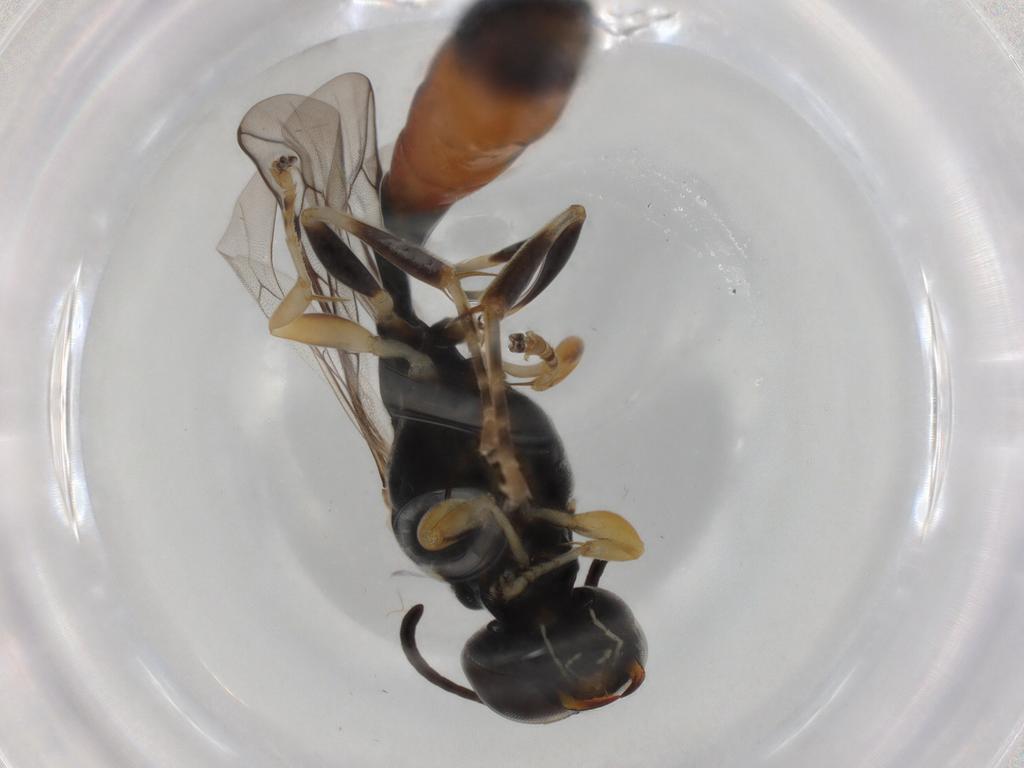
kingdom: Animalia
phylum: Arthropoda
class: Insecta
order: Hymenoptera
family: Crabronidae
